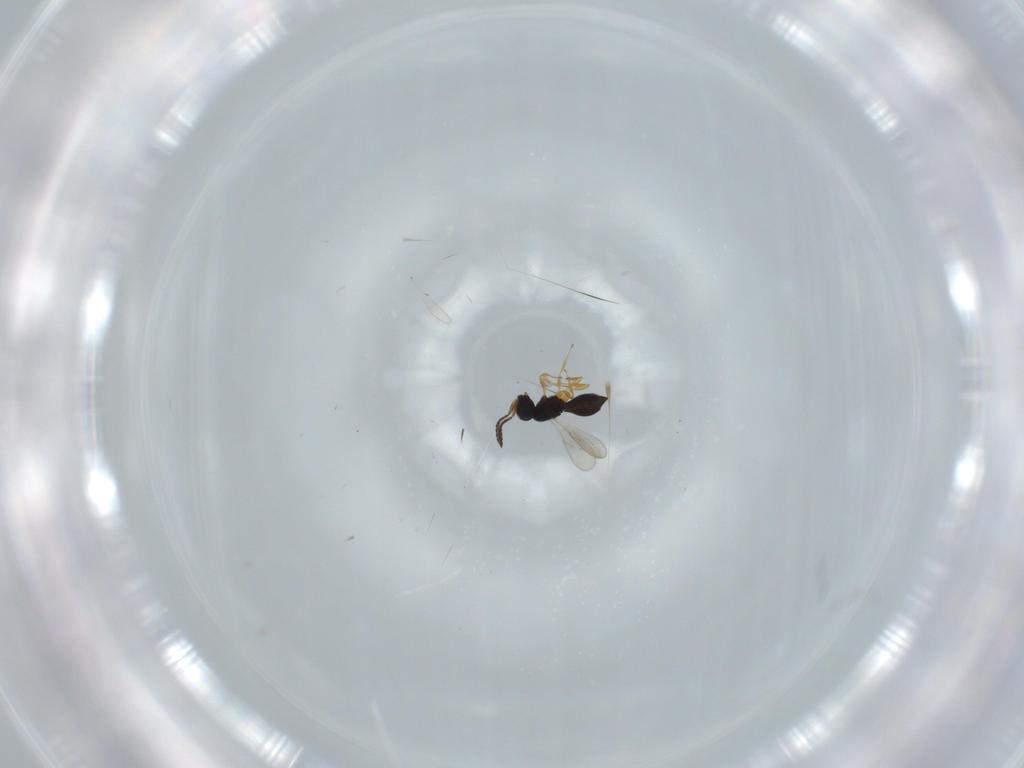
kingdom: Animalia
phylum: Arthropoda
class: Insecta
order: Hymenoptera
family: Scelionidae
